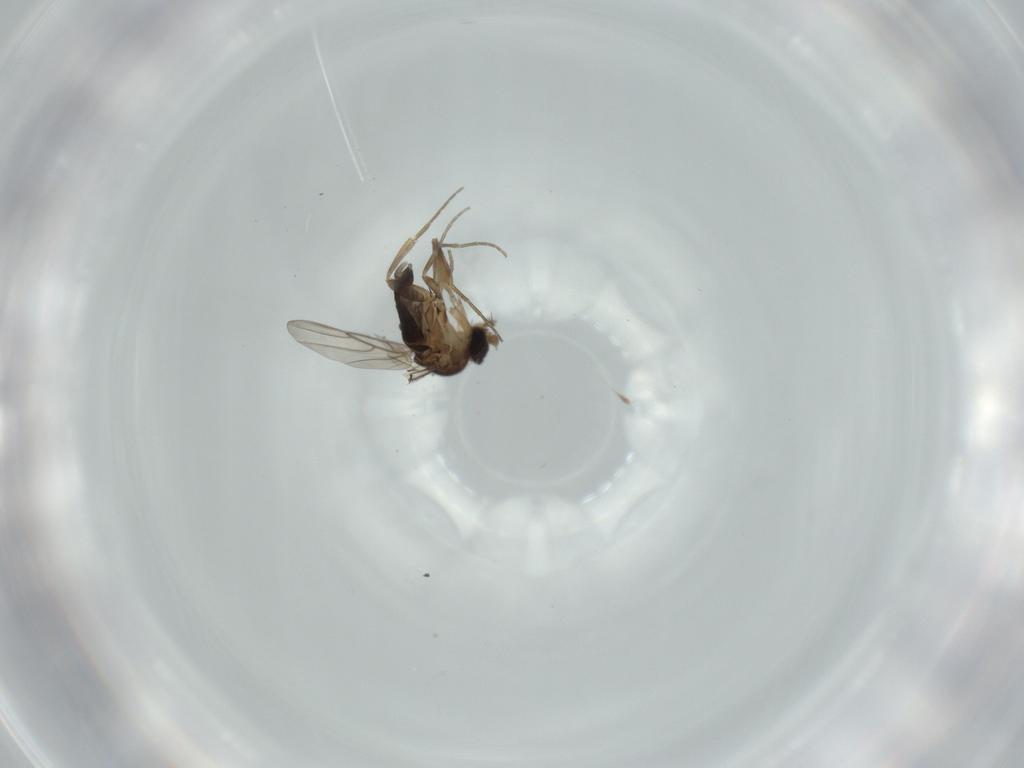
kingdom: Animalia
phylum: Arthropoda
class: Insecta
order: Diptera
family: Phoridae
